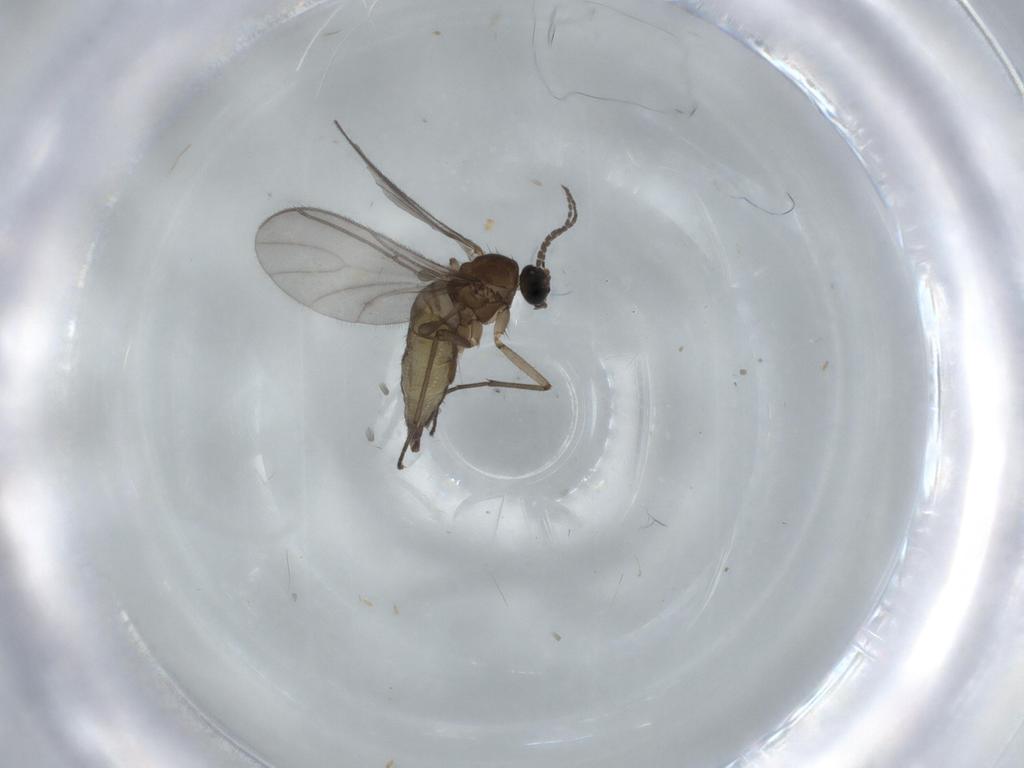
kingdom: Animalia
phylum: Arthropoda
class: Insecta
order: Diptera
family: Sciaridae
